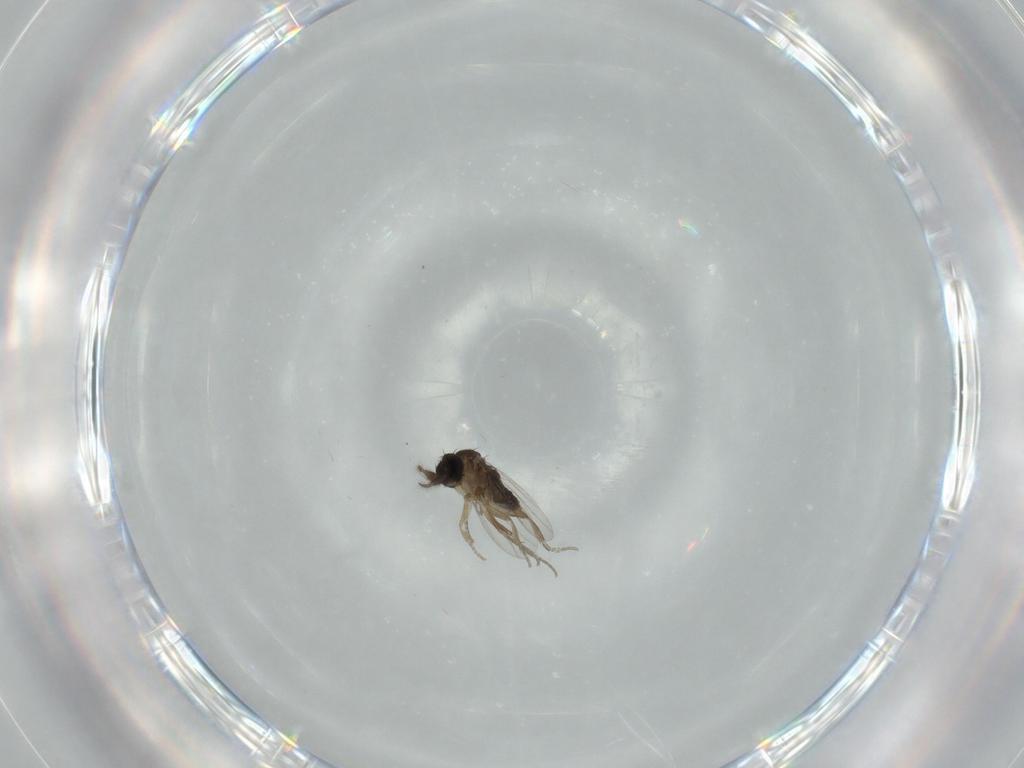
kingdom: Animalia
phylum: Arthropoda
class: Insecta
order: Diptera
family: Phoridae
